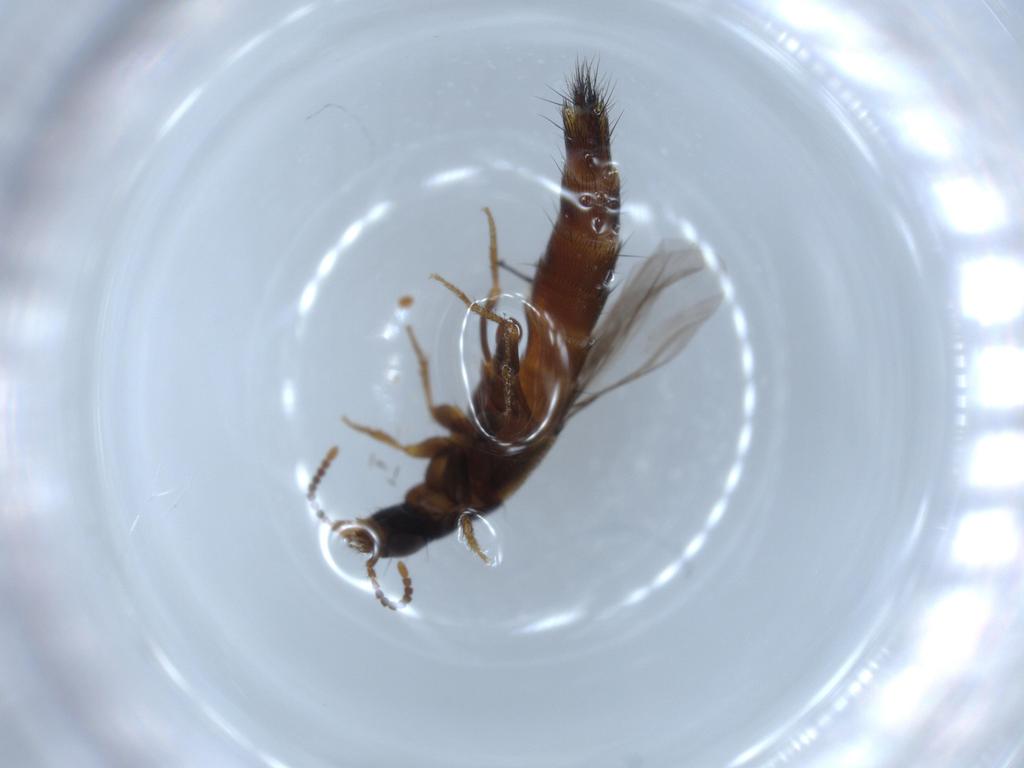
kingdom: Animalia
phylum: Arthropoda
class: Insecta
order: Coleoptera
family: Staphylinidae
